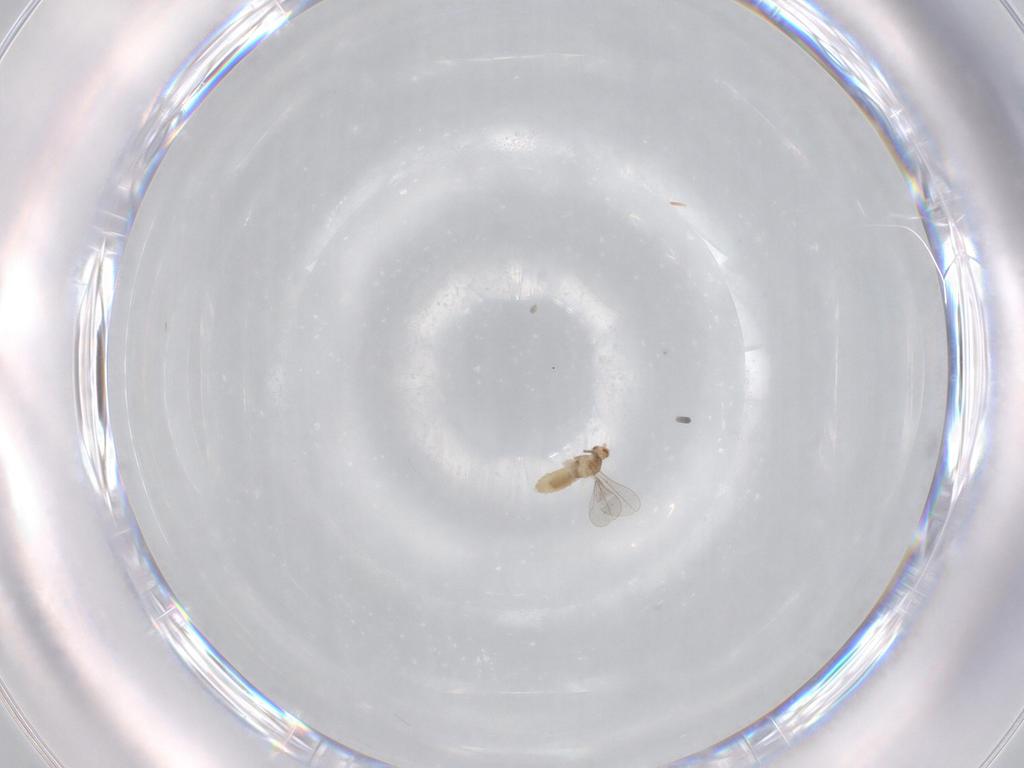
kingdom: Animalia
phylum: Arthropoda
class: Insecta
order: Diptera
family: Cecidomyiidae
